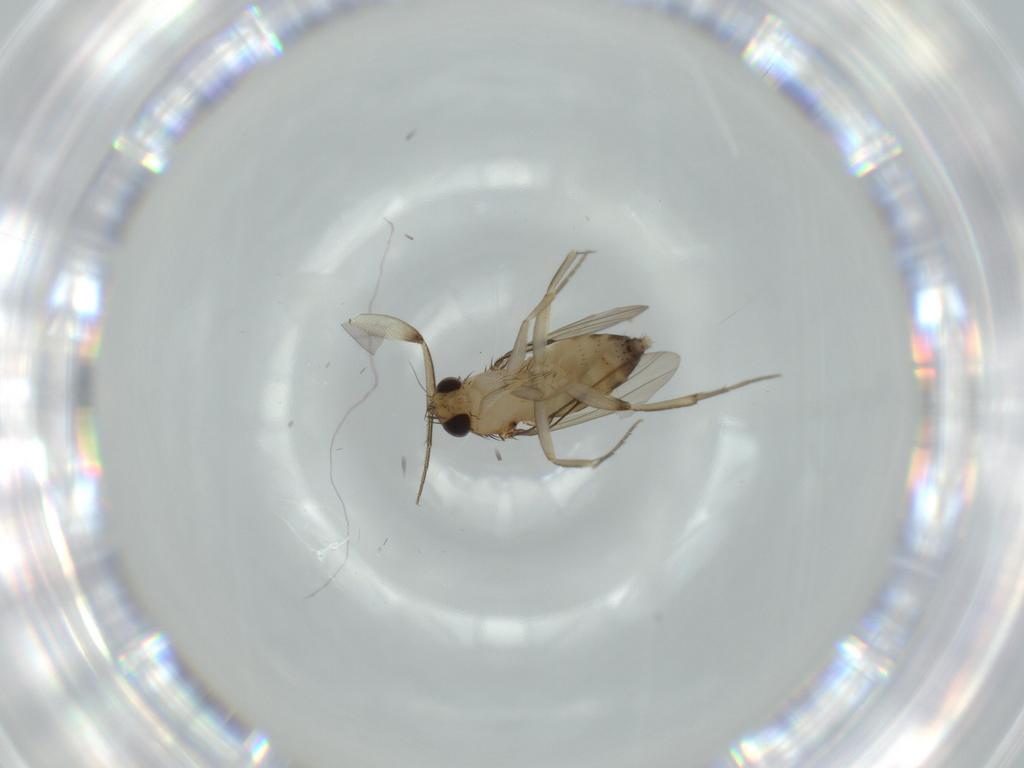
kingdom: Animalia
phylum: Arthropoda
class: Insecta
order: Diptera
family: Phoridae
